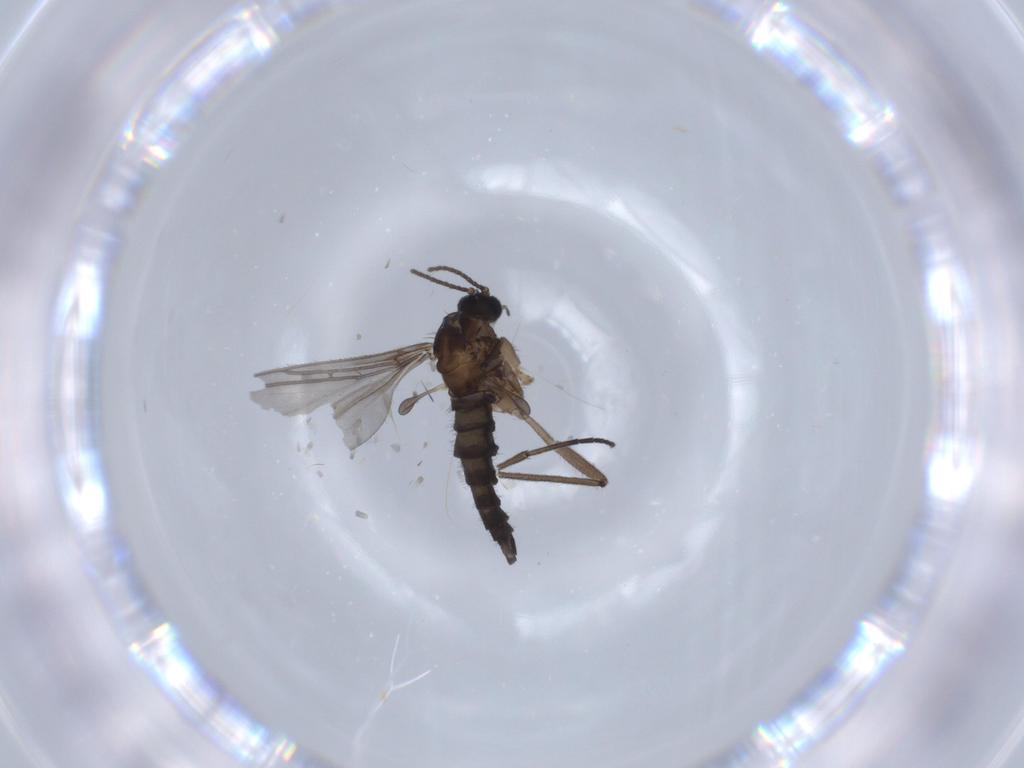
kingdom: Animalia
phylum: Arthropoda
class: Insecta
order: Diptera
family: Sciaridae
